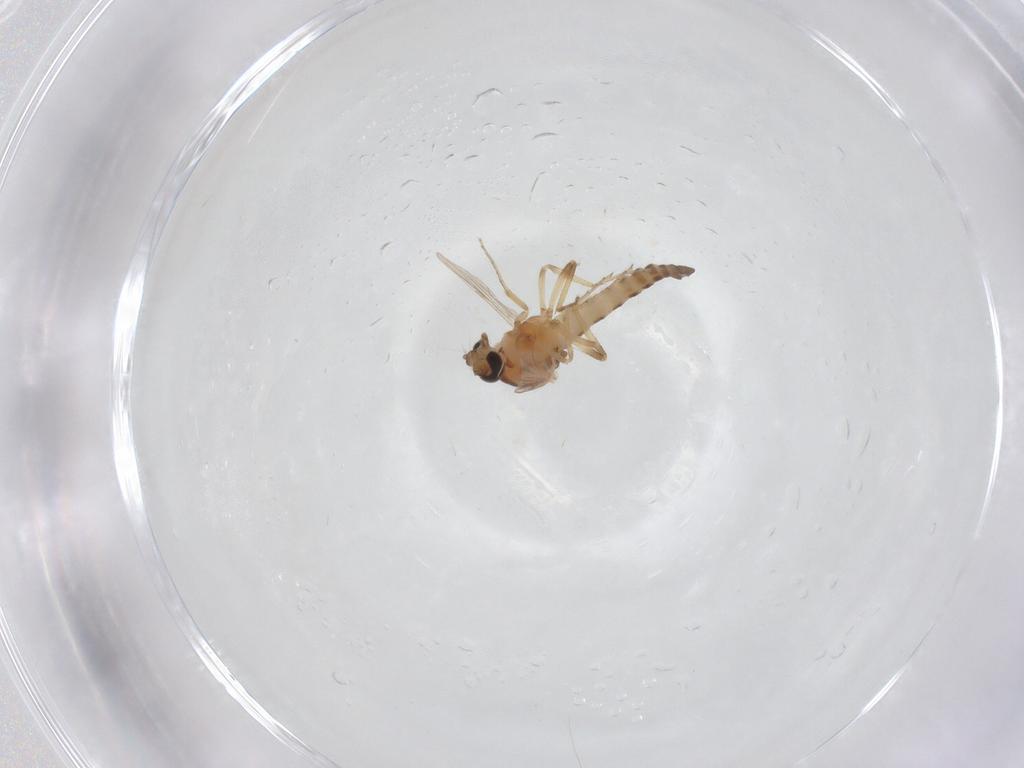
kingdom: Animalia
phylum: Arthropoda
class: Insecta
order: Diptera
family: Ceratopogonidae
